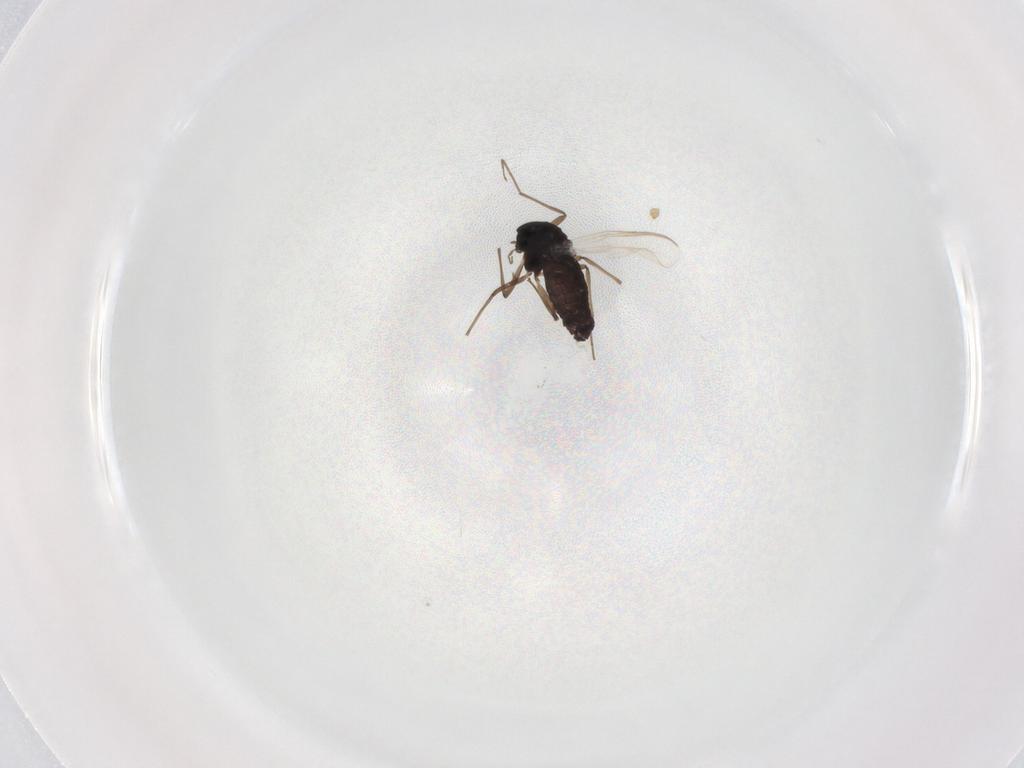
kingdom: Animalia
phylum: Arthropoda
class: Insecta
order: Diptera
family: Chironomidae
